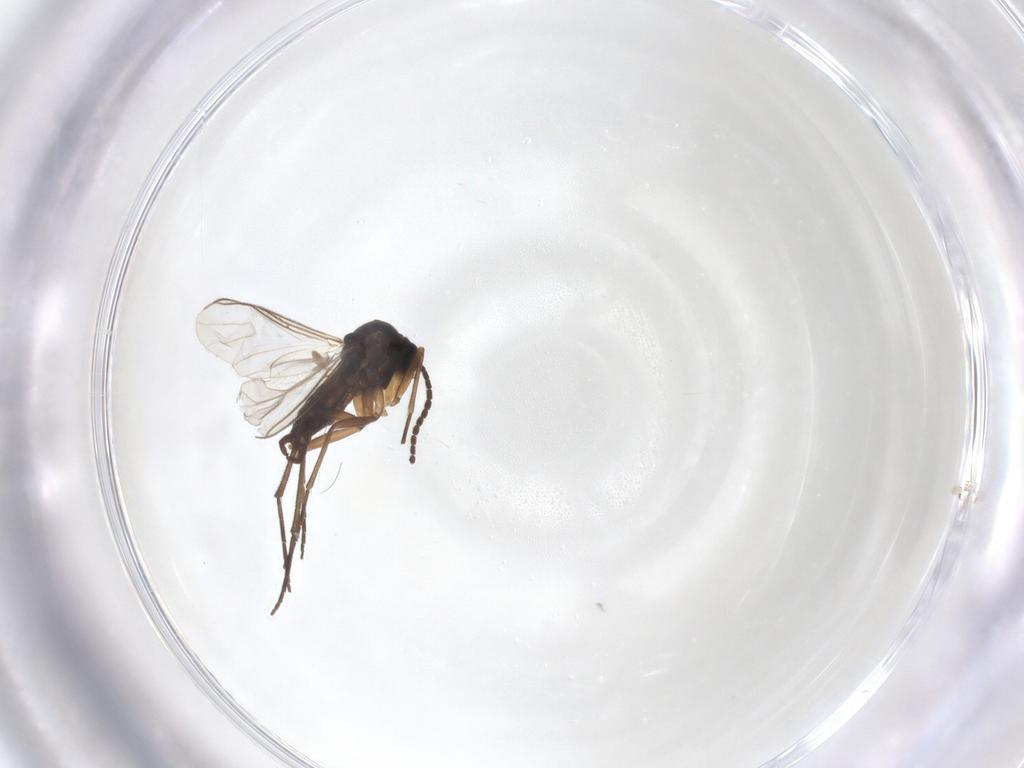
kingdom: Animalia
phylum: Arthropoda
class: Insecta
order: Diptera
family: Sciaridae
